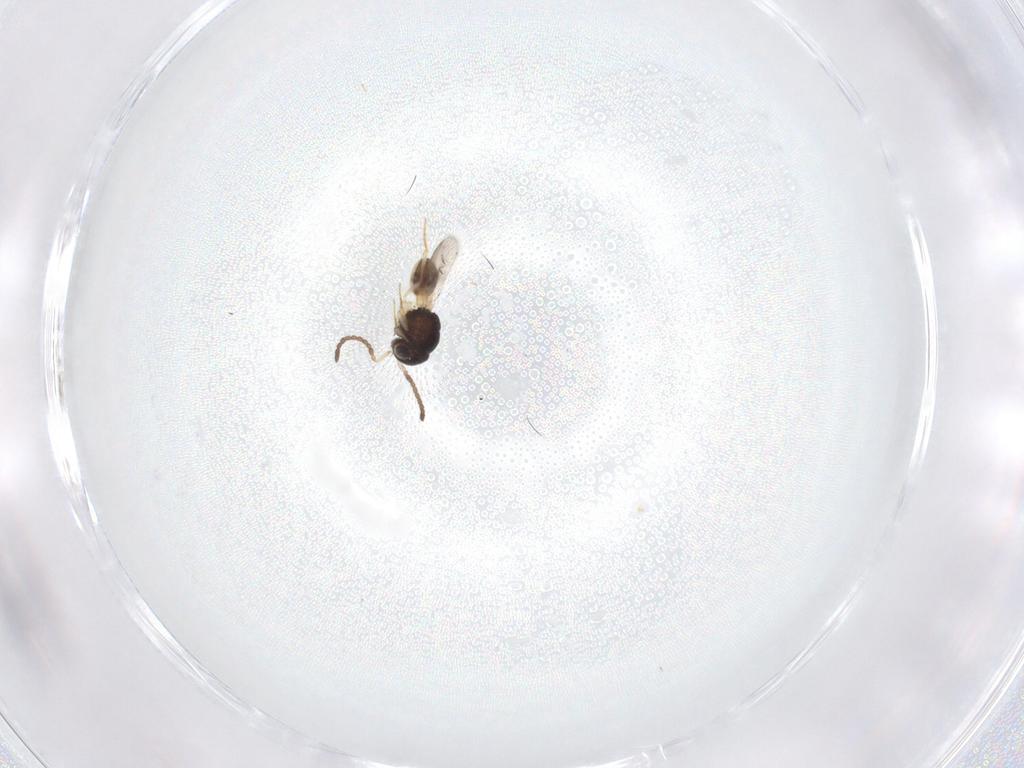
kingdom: Animalia
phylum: Arthropoda
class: Insecta
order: Hymenoptera
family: Scelionidae
